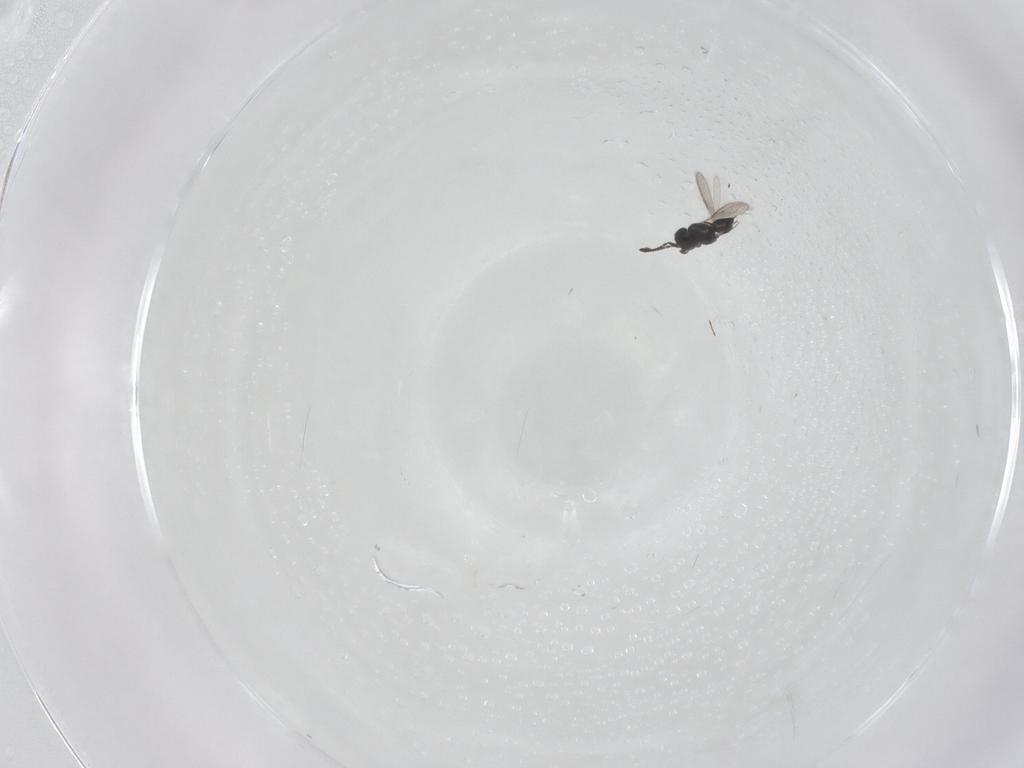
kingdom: Animalia
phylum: Arthropoda
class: Insecta
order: Hymenoptera
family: Scelionidae
